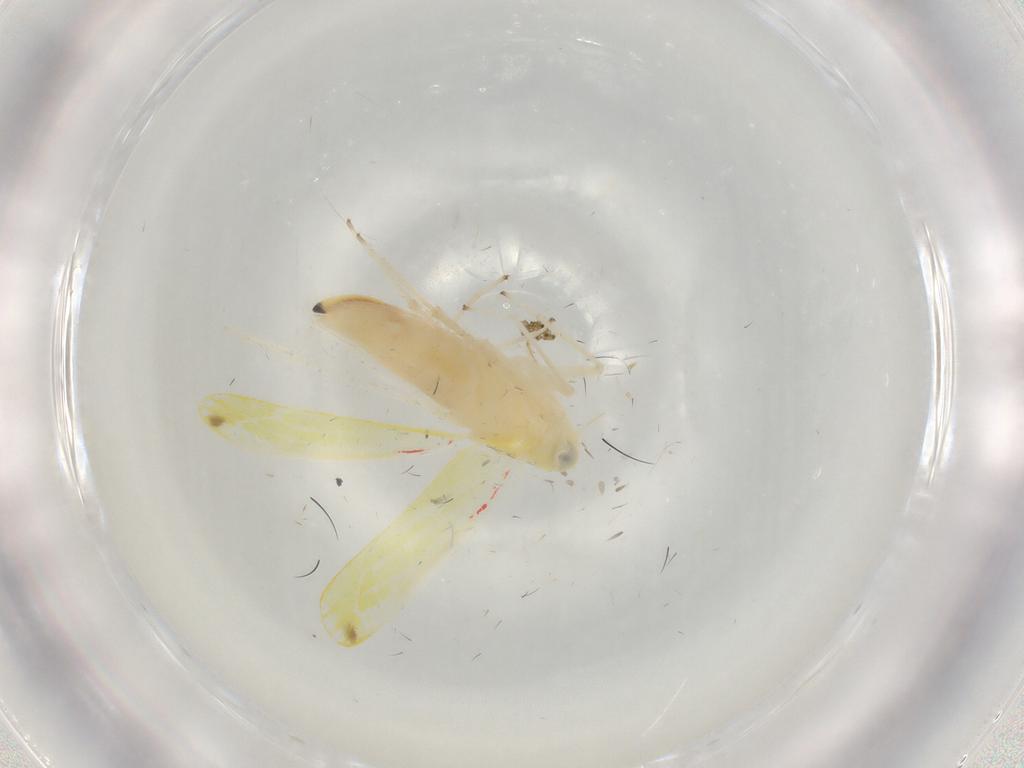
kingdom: Animalia
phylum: Arthropoda
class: Insecta
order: Hemiptera
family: Cicadellidae
